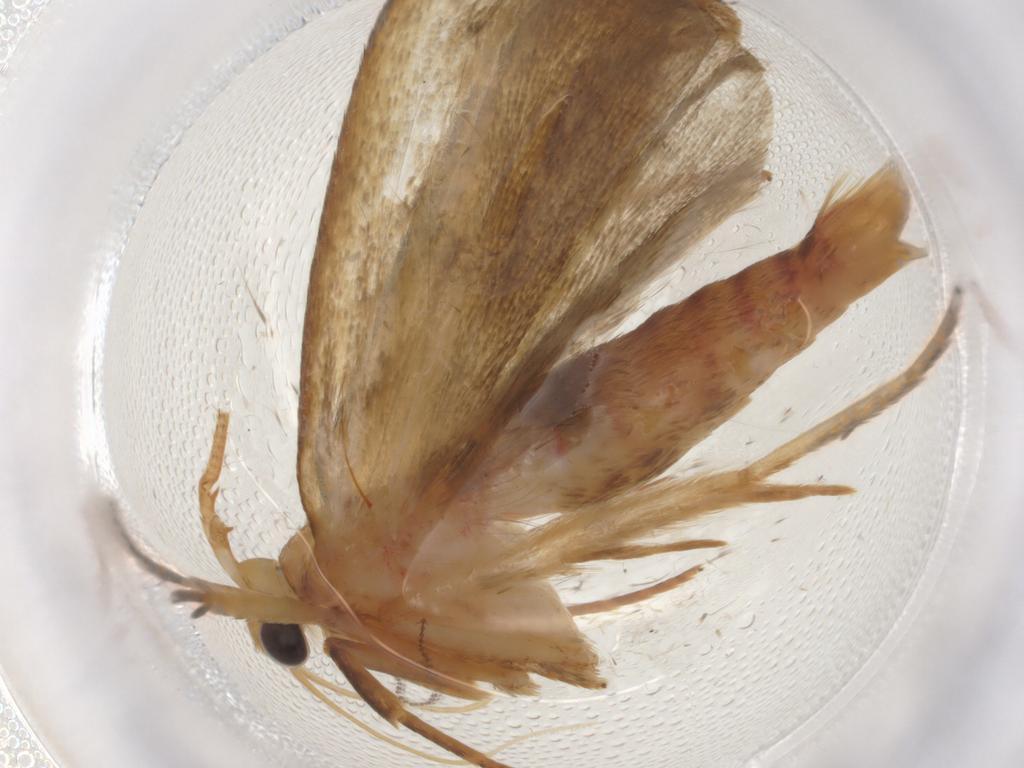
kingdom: Animalia
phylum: Arthropoda
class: Insecta
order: Lepidoptera
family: Autostichidae
